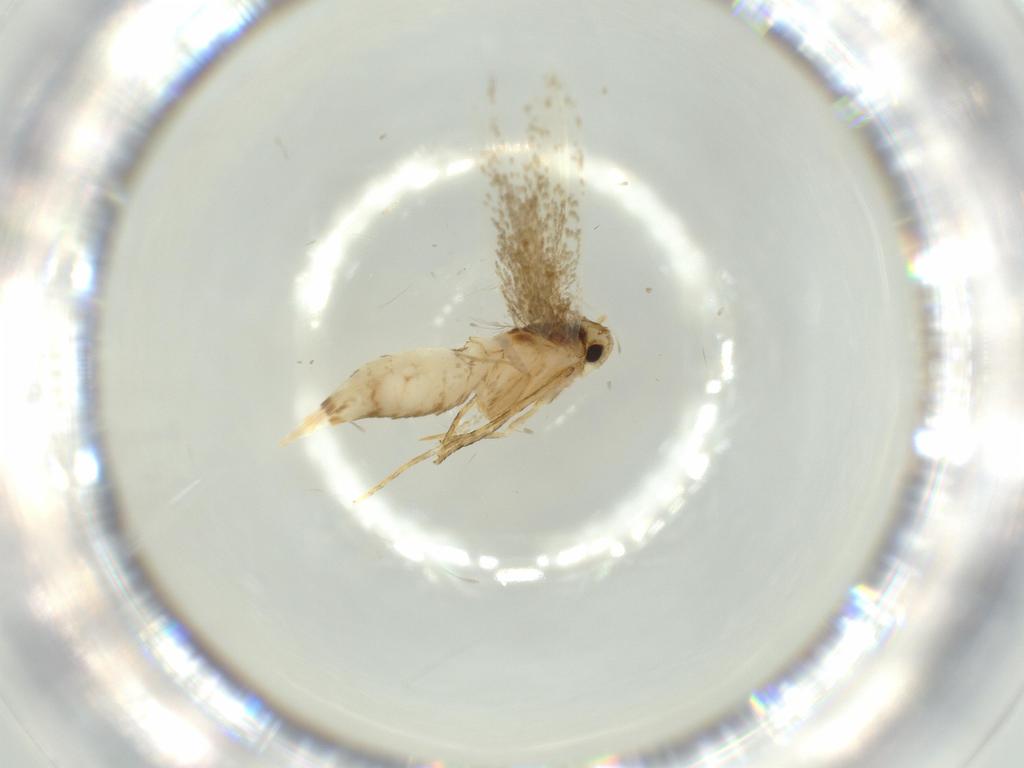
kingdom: Animalia
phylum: Arthropoda
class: Insecta
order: Lepidoptera
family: Tineidae
